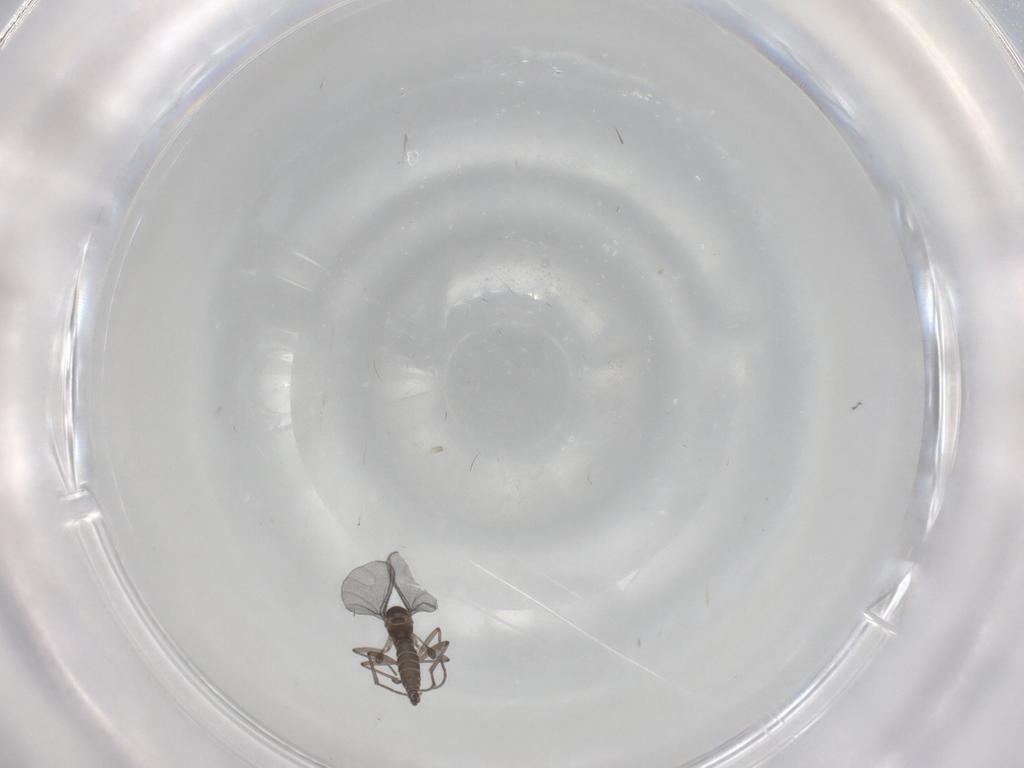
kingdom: Animalia
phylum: Arthropoda
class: Insecta
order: Diptera
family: Sciaridae
